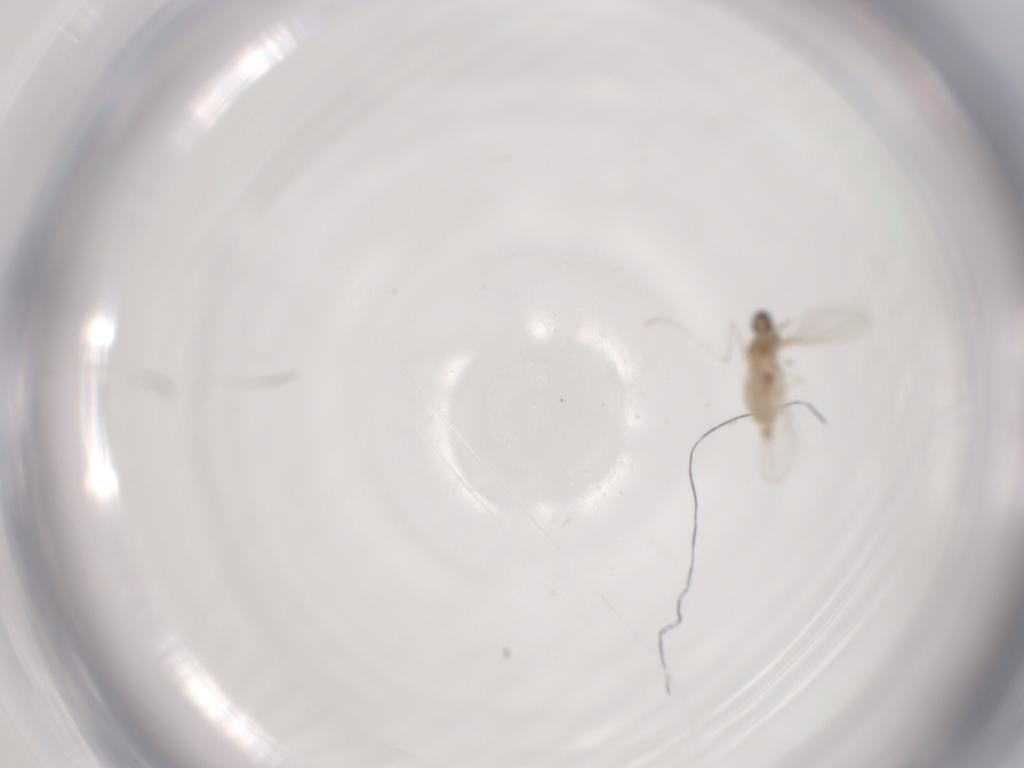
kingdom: Animalia
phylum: Arthropoda
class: Insecta
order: Diptera
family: Cecidomyiidae
